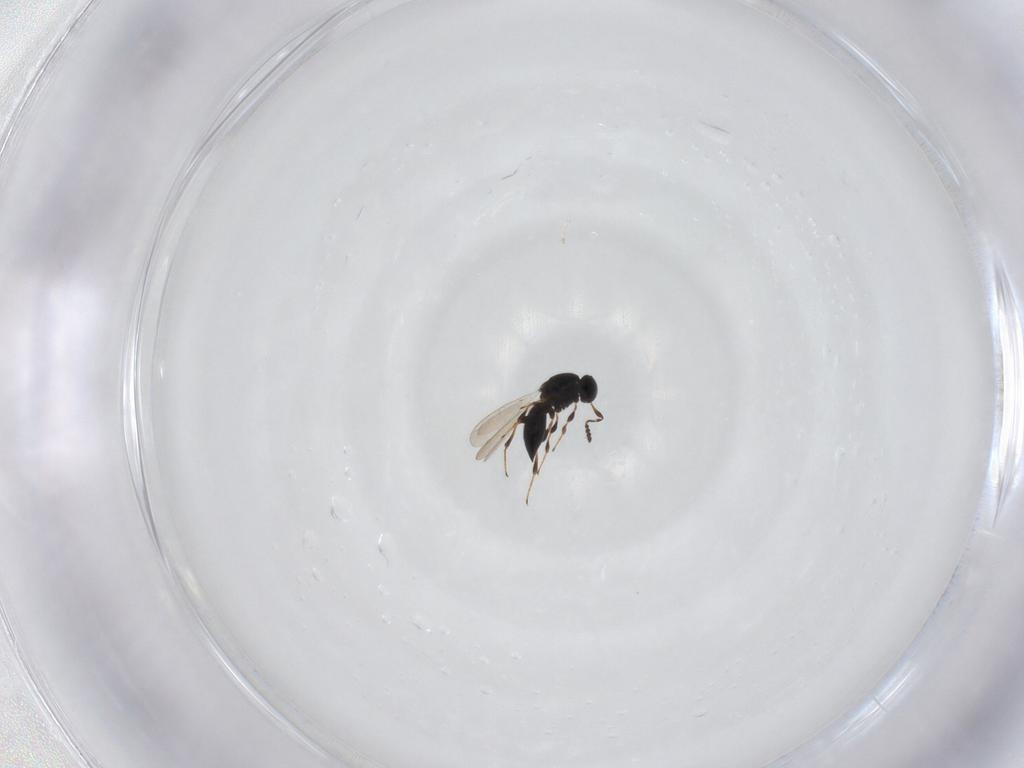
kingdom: Animalia
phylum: Arthropoda
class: Insecta
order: Hymenoptera
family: Platygastridae
